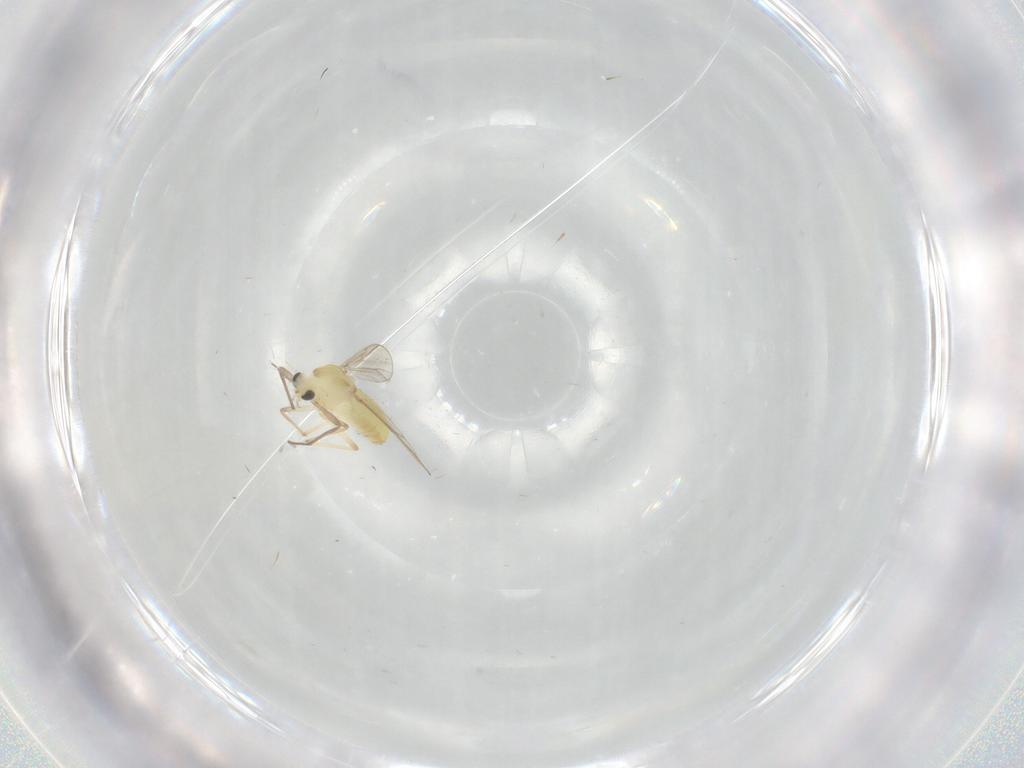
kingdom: Animalia
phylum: Arthropoda
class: Insecta
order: Diptera
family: Chironomidae
